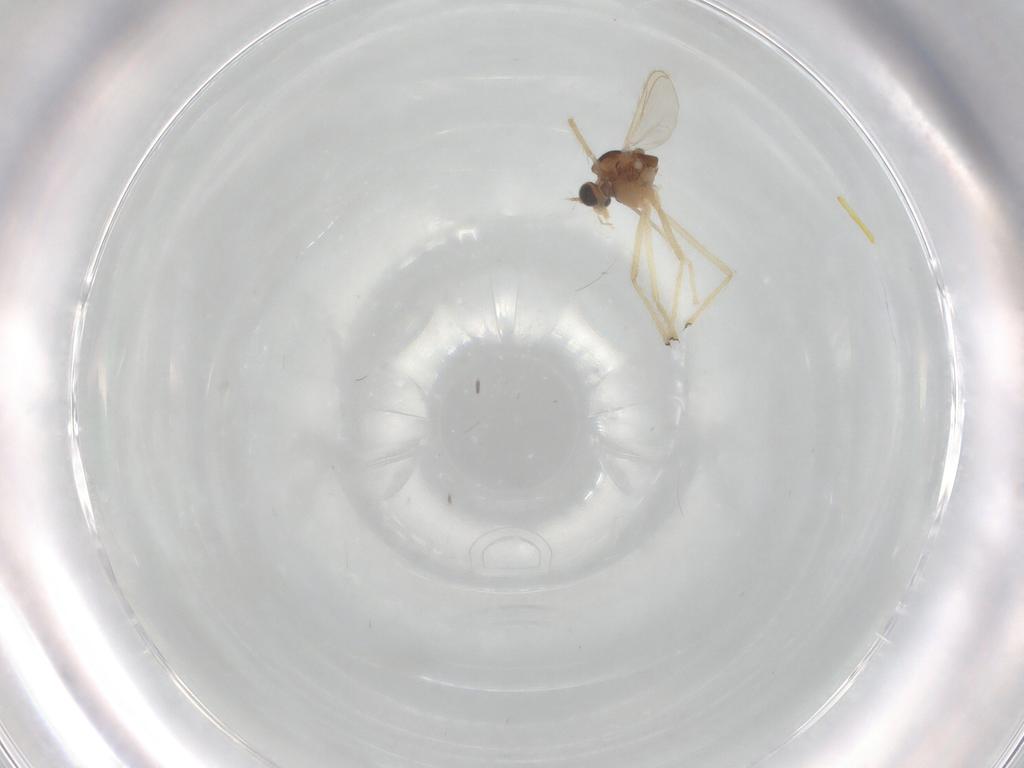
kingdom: Animalia
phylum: Arthropoda
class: Insecta
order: Diptera
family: Chironomidae
